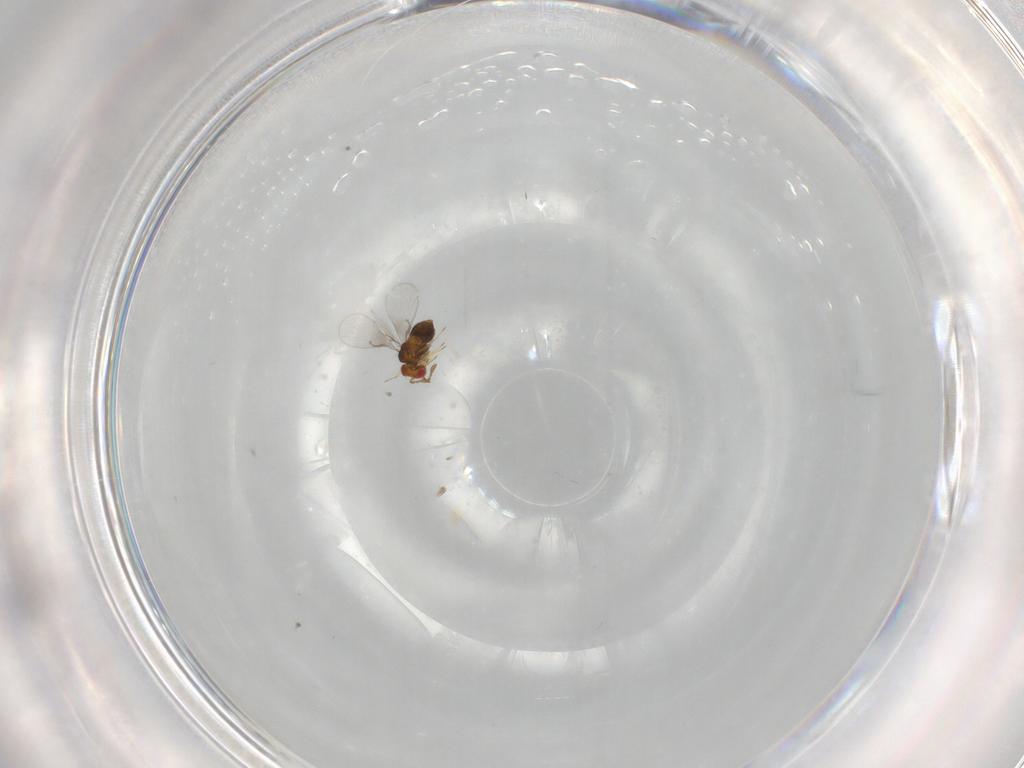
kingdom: Animalia
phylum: Arthropoda
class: Insecta
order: Hymenoptera
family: Trichogrammatidae
